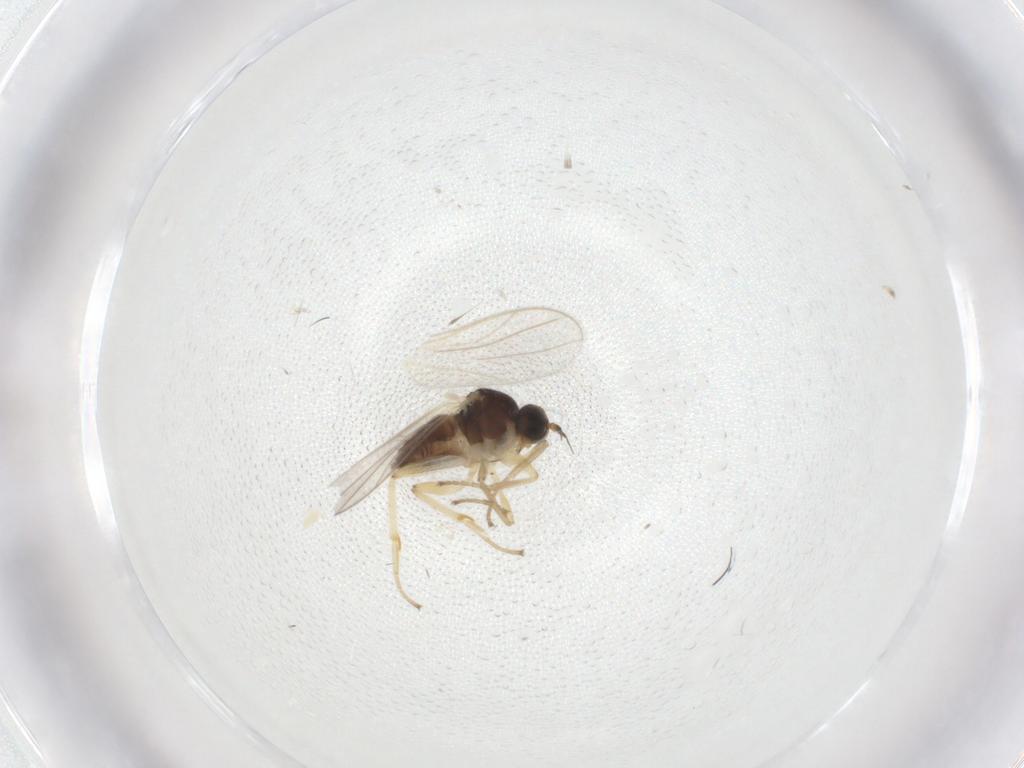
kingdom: Animalia
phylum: Arthropoda
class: Insecta
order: Diptera
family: Hybotidae
